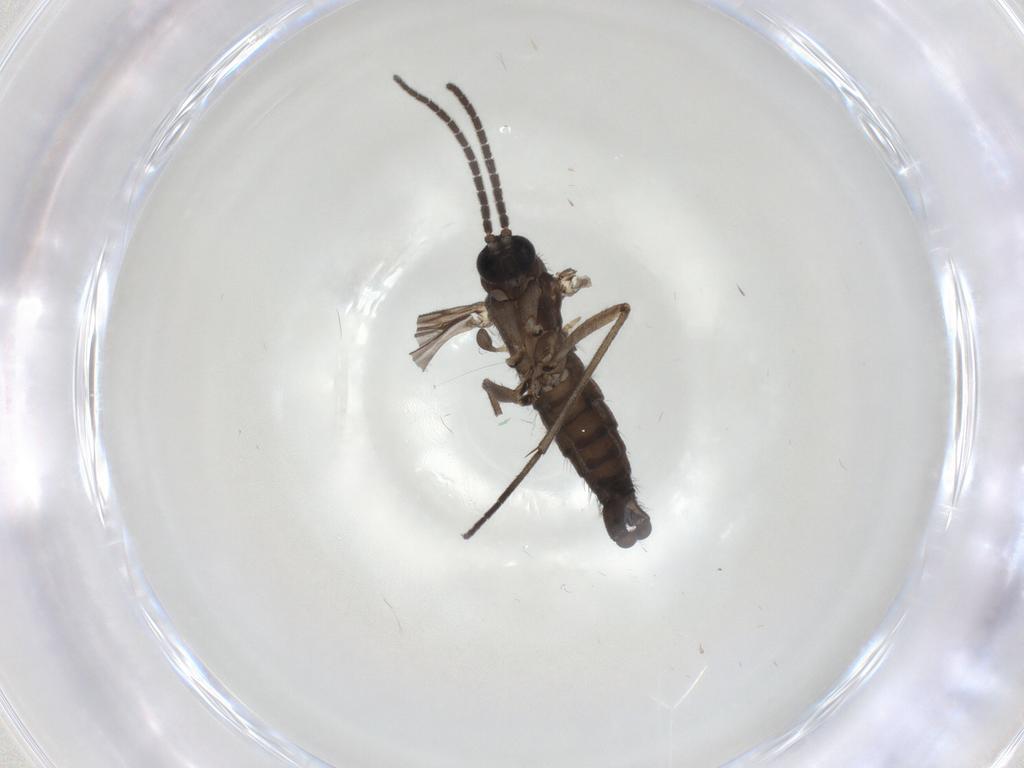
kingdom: Animalia
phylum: Arthropoda
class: Insecta
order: Diptera
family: Sciaridae
